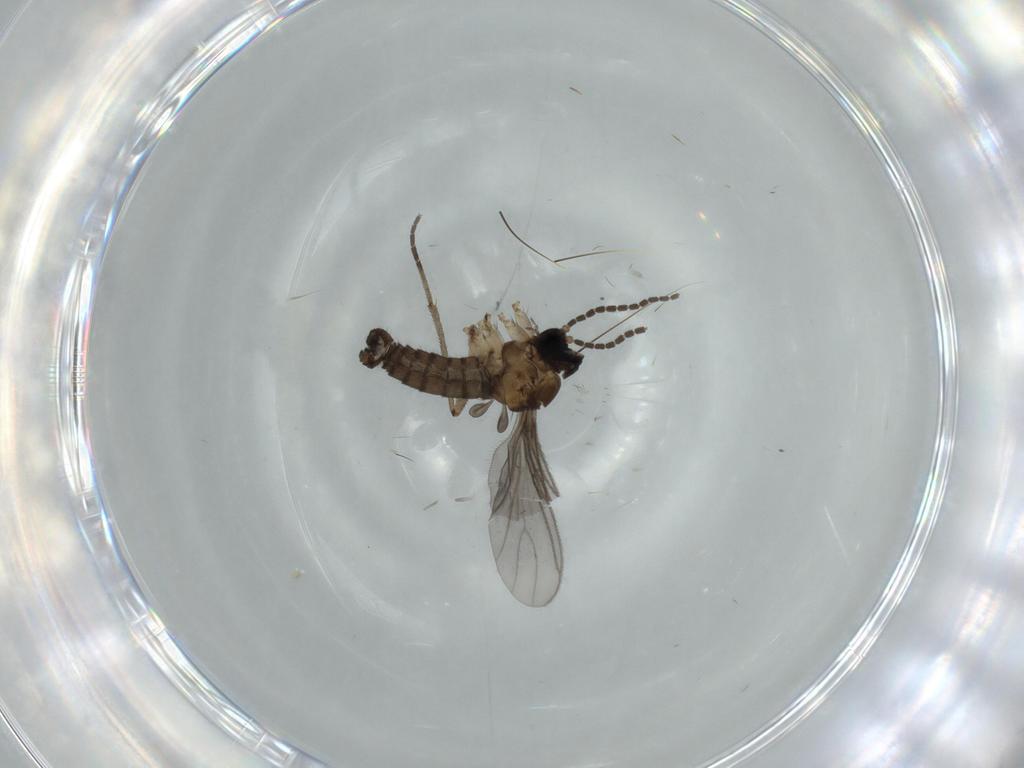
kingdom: Animalia
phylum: Arthropoda
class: Insecta
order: Diptera
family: Sciaridae
